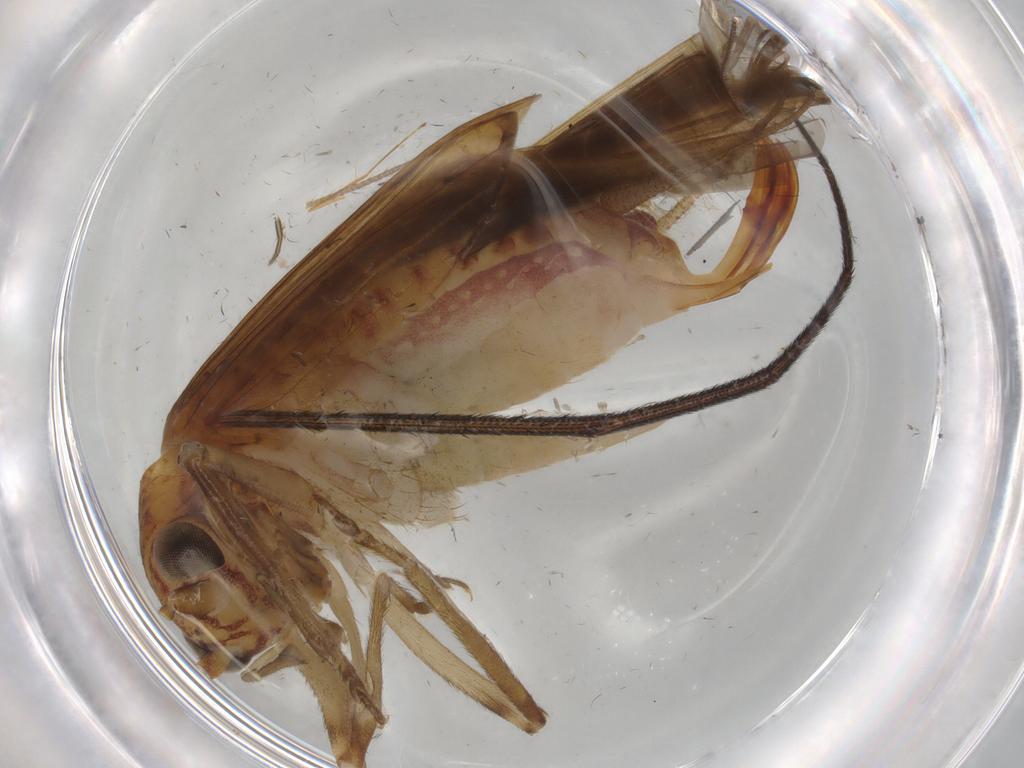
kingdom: Animalia
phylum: Arthropoda
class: Insecta
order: Orthoptera
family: Trigonidiidae
